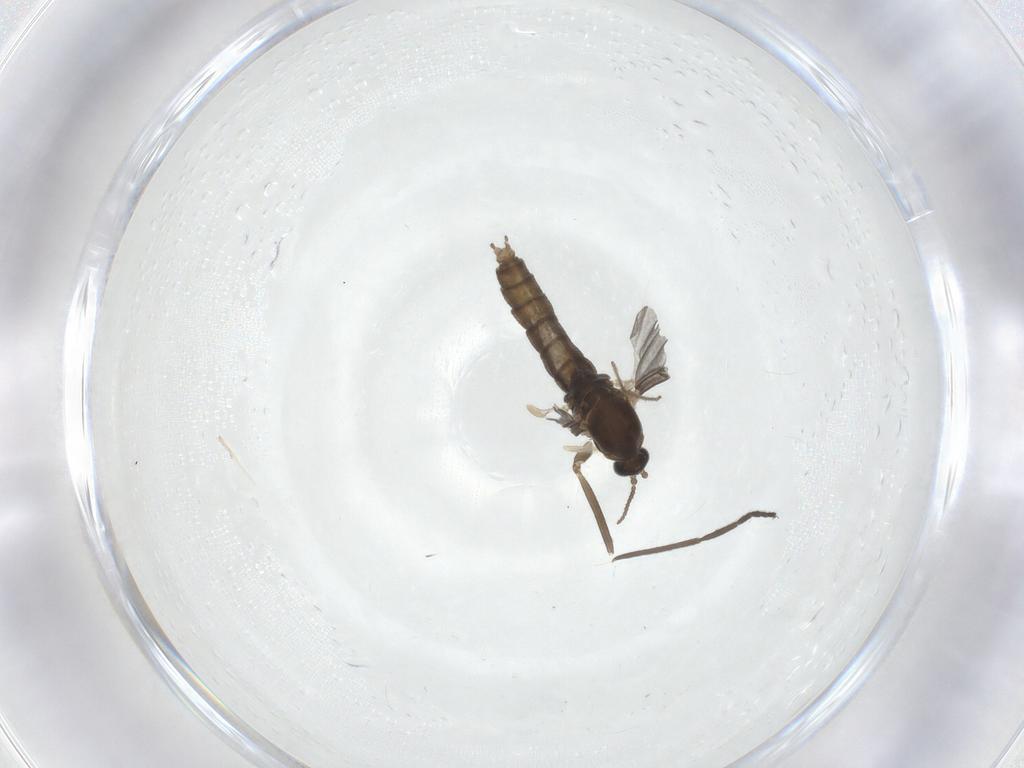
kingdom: Animalia
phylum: Arthropoda
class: Insecta
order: Diptera
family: Cecidomyiidae
